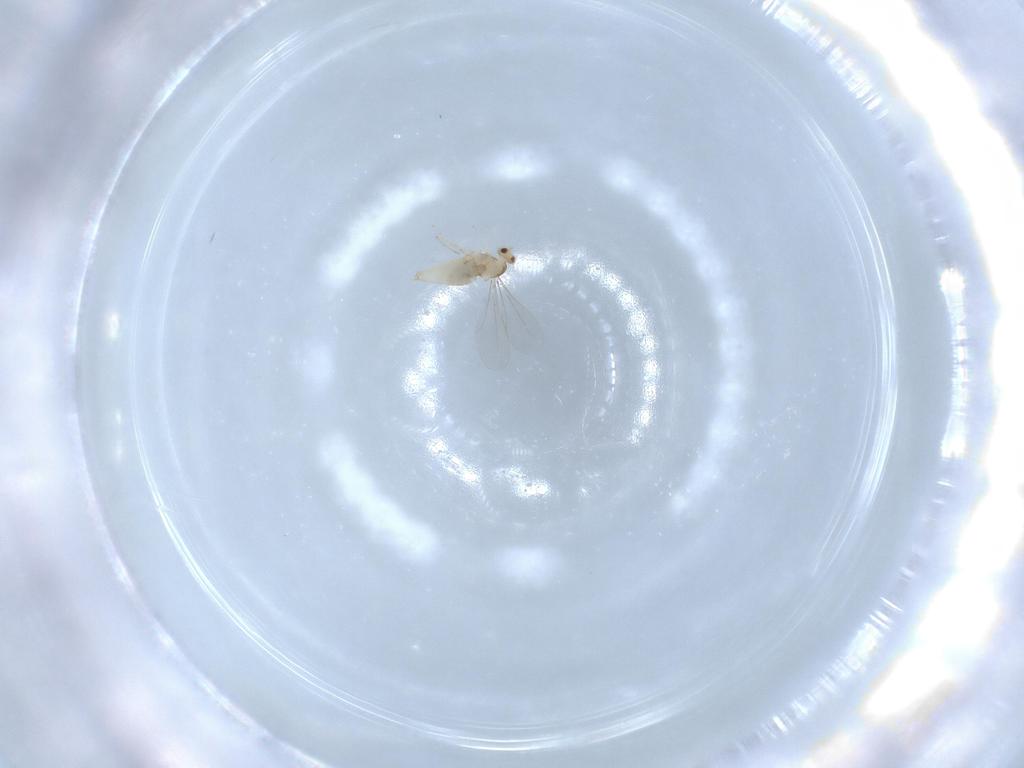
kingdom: Animalia
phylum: Arthropoda
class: Insecta
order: Diptera
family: Cecidomyiidae
